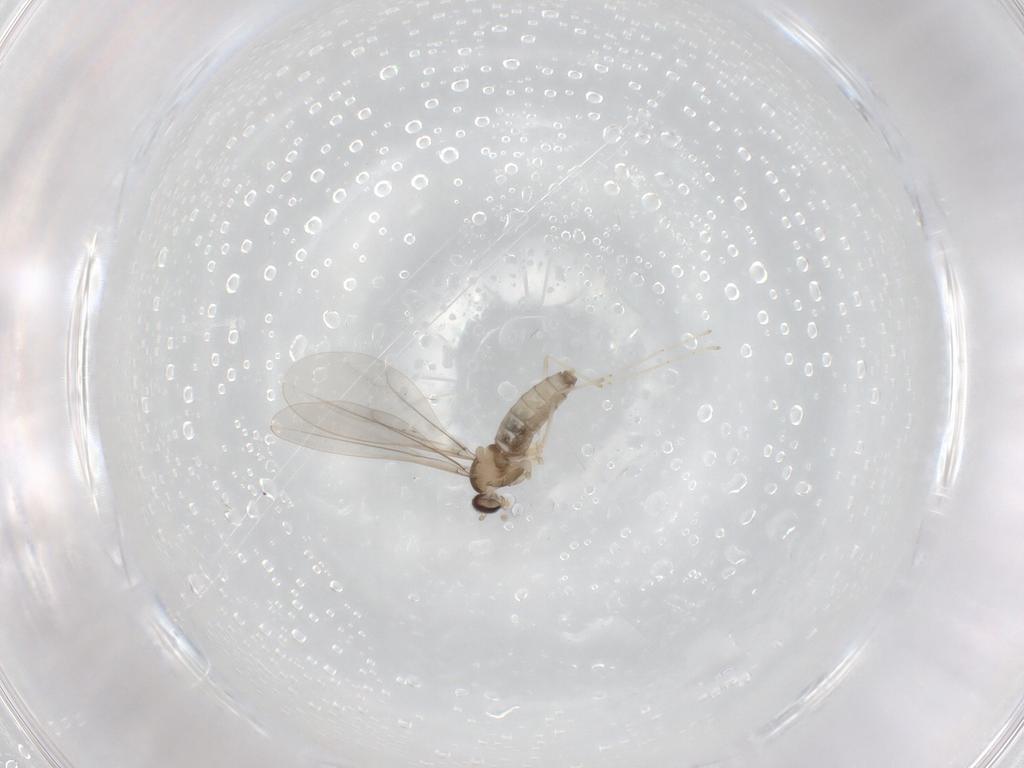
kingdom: Animalia
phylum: Arthropoda
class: Insecta
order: Diptera
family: Cecidomyiidae
